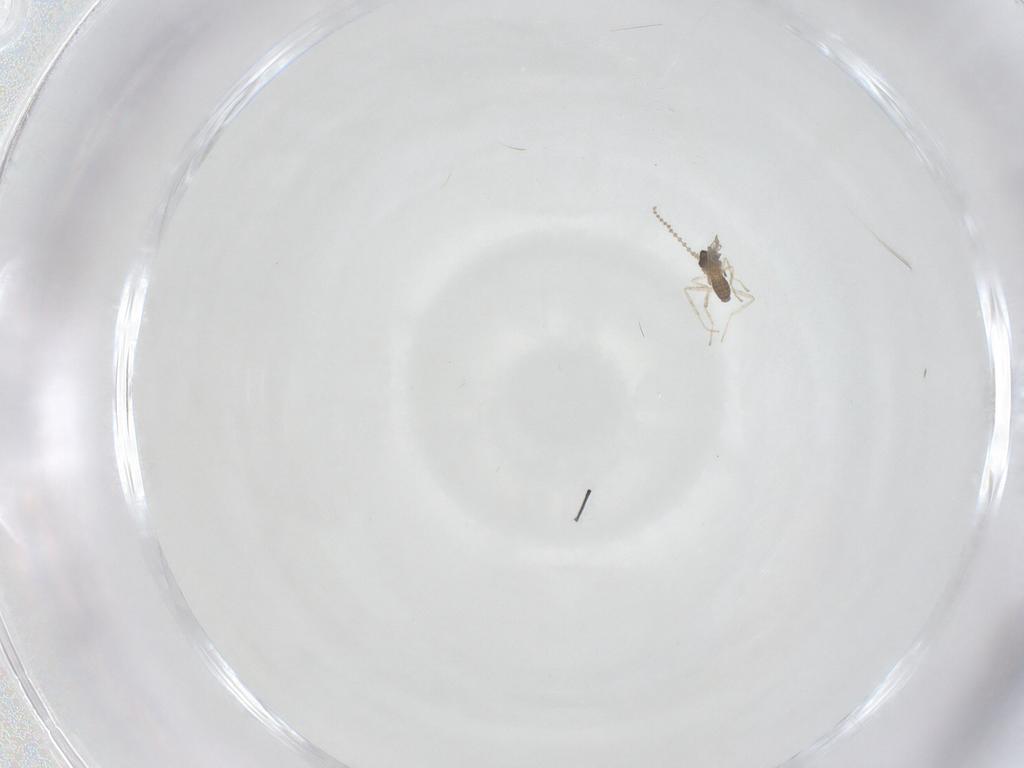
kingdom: Animalia
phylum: Arthropoda
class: Insecta
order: Diptera
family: Cecidomyiidae
